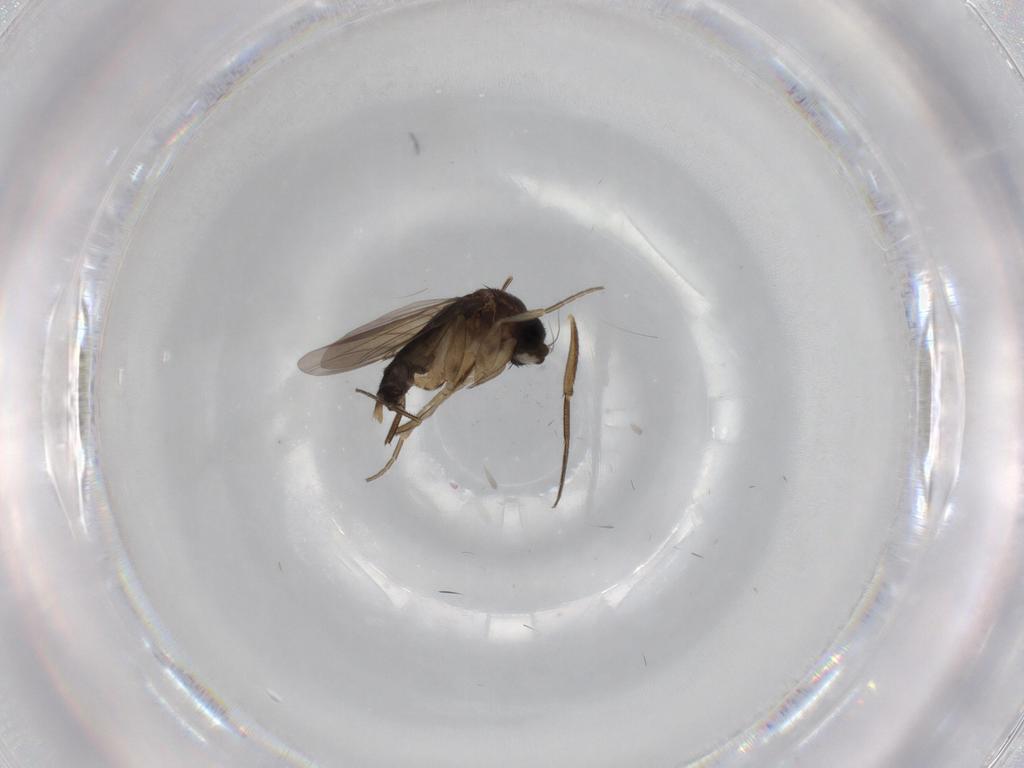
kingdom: Animalia
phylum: Arthropoda
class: Insecta
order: Diptera
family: Phoridae
